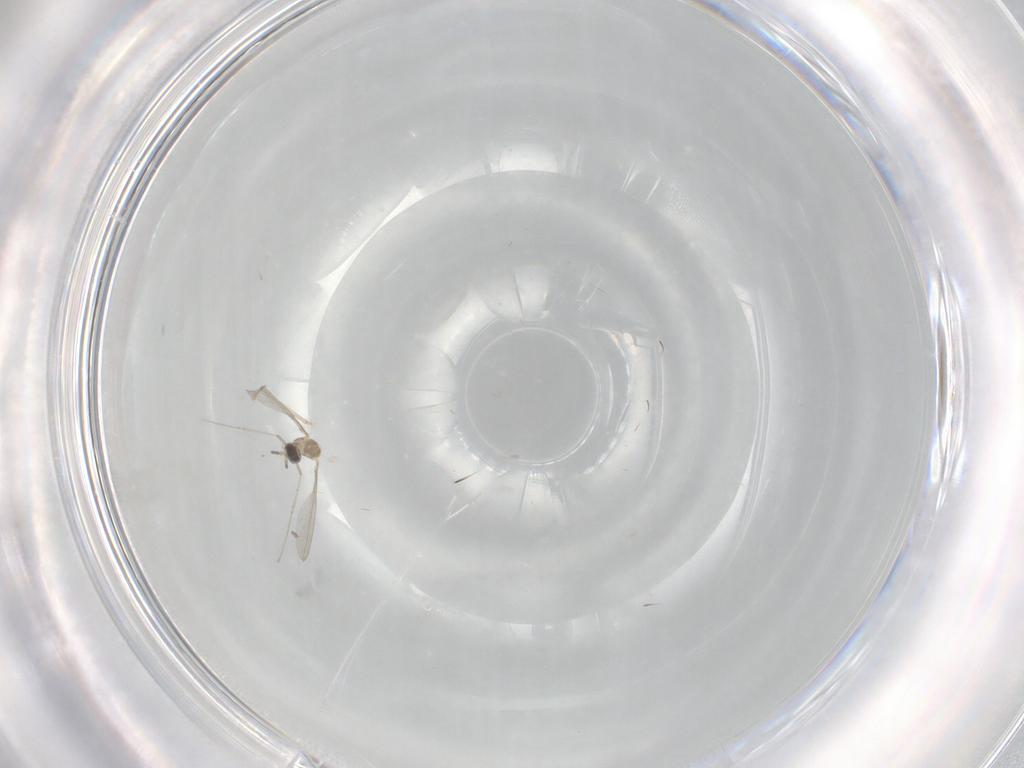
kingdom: Animalia
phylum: Arthropoda
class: Insecta
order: Diptera
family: Cecidomyiidae
